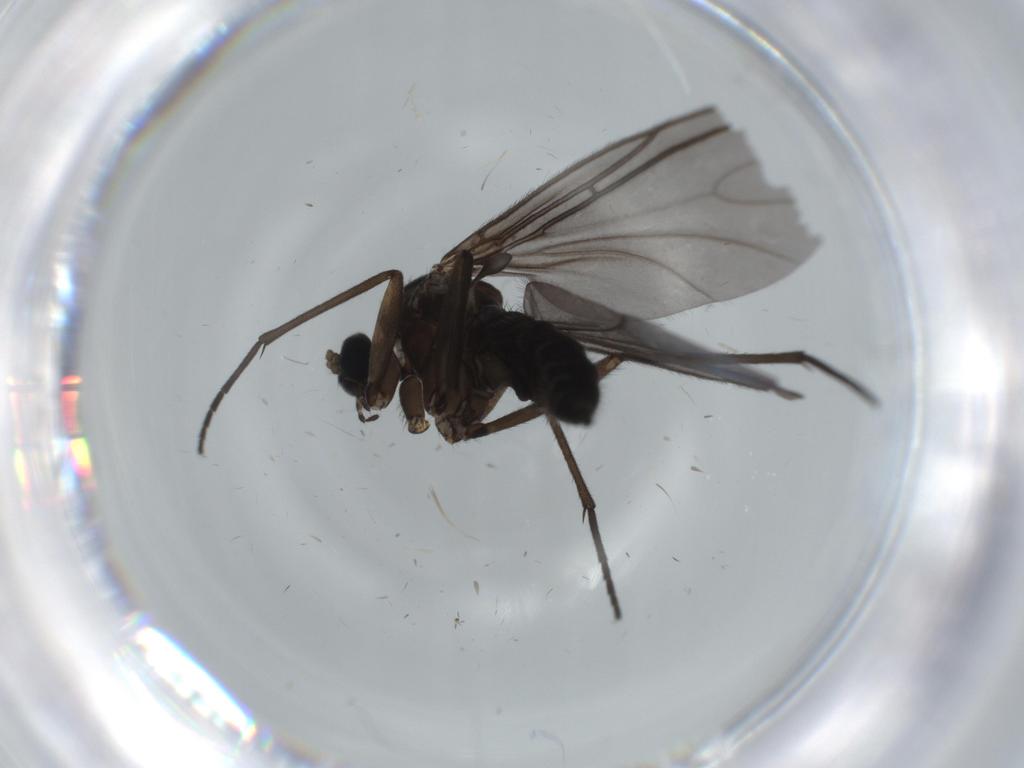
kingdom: Animalia
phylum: Arthropoda
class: Insecta
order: Diptera
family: Sciaridae
